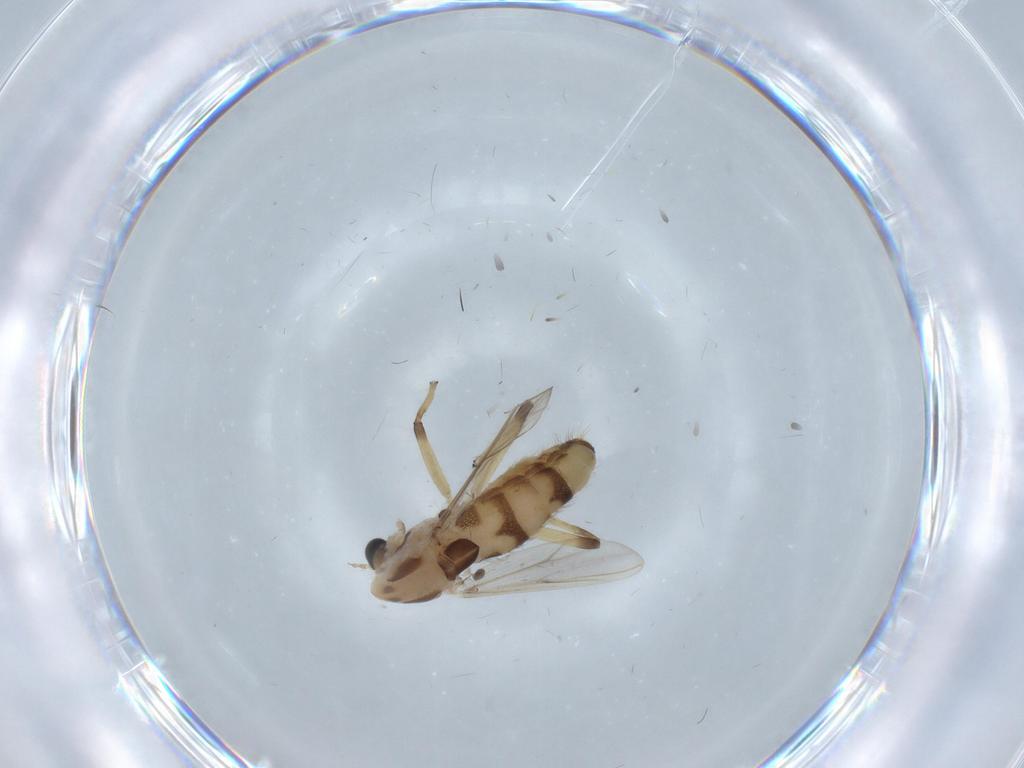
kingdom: Animalia
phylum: Arthropoda
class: Insecta
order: Diptera
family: Chironomidae
